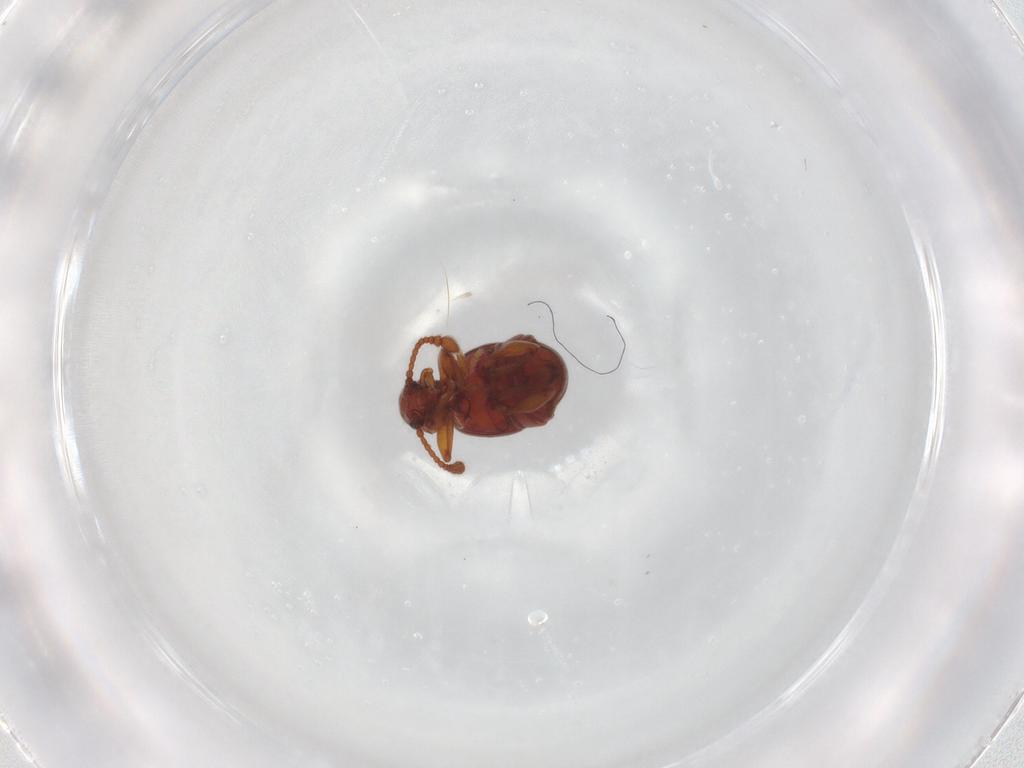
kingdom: Animalia
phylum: Arthropoda
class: Insecta
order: Coleoptera
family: Staphylinidae
